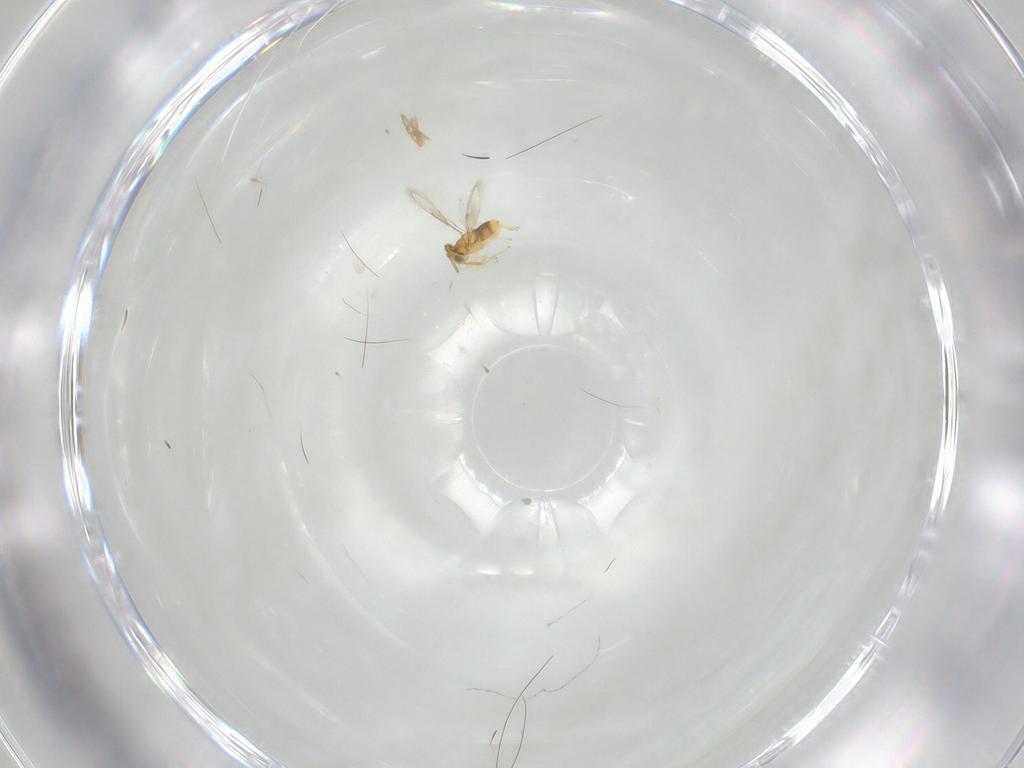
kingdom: Animalia
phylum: Arthropoda
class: Insecta
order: Hymenoptera
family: Aphelinidae
